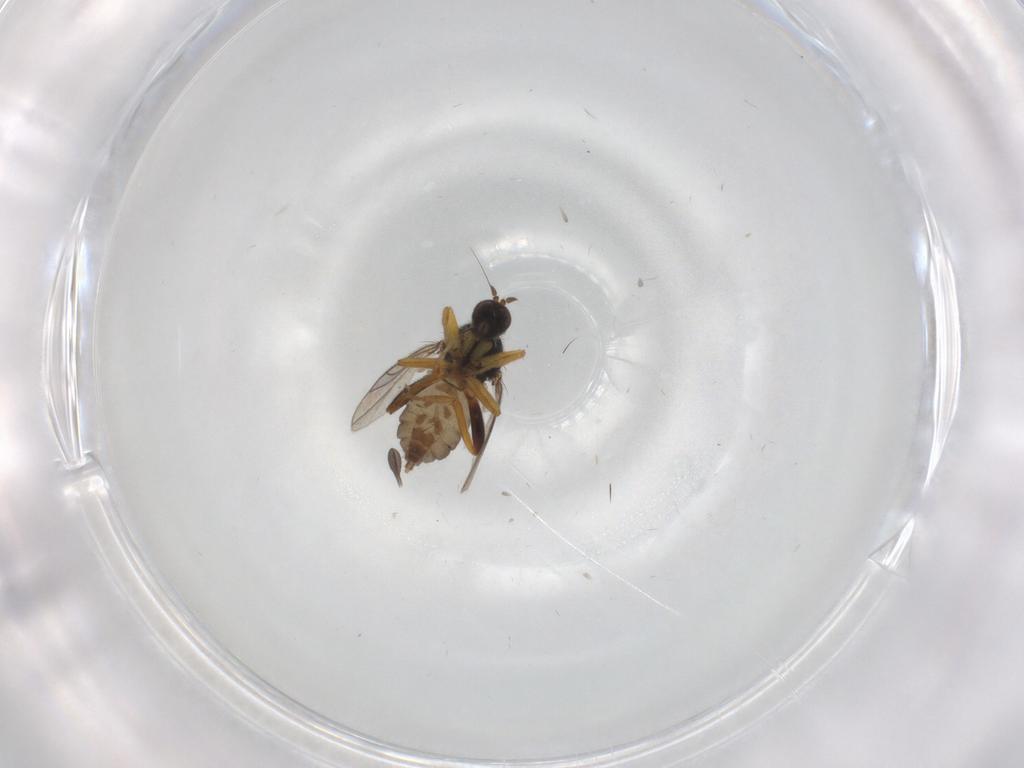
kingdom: Animalia
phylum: Arthropoda
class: Insecta
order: Diptera
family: Hybotidae
